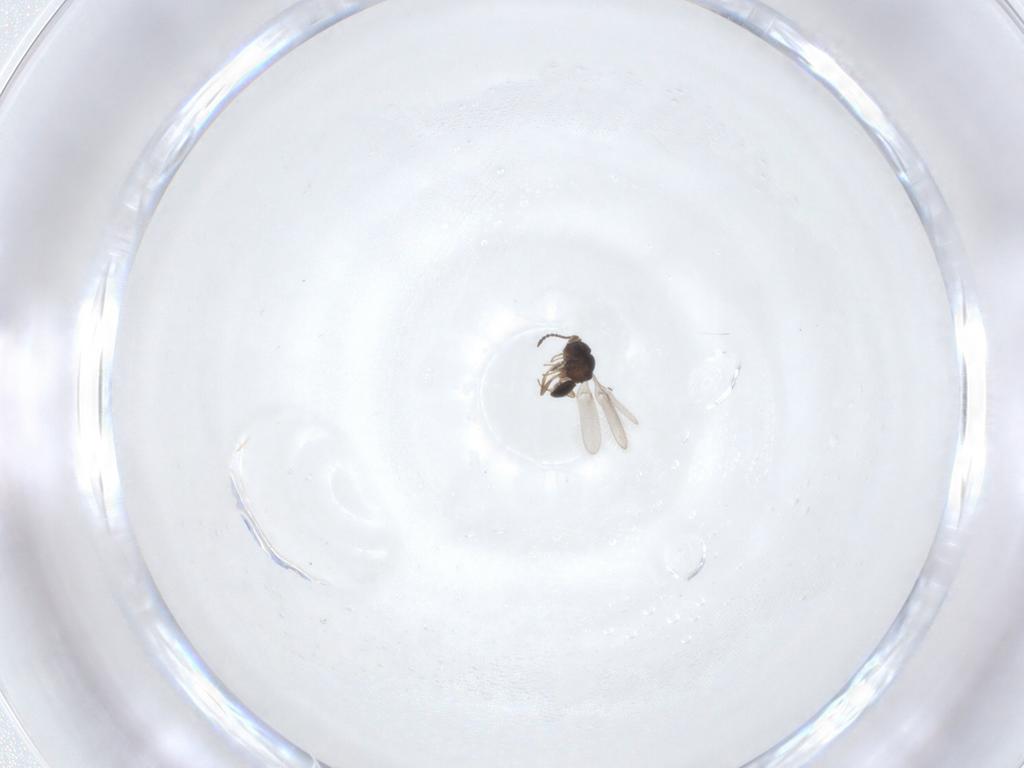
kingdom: Animalia
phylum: Arthropoda
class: Insecta
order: Hymenoptera
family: Scelionidae
